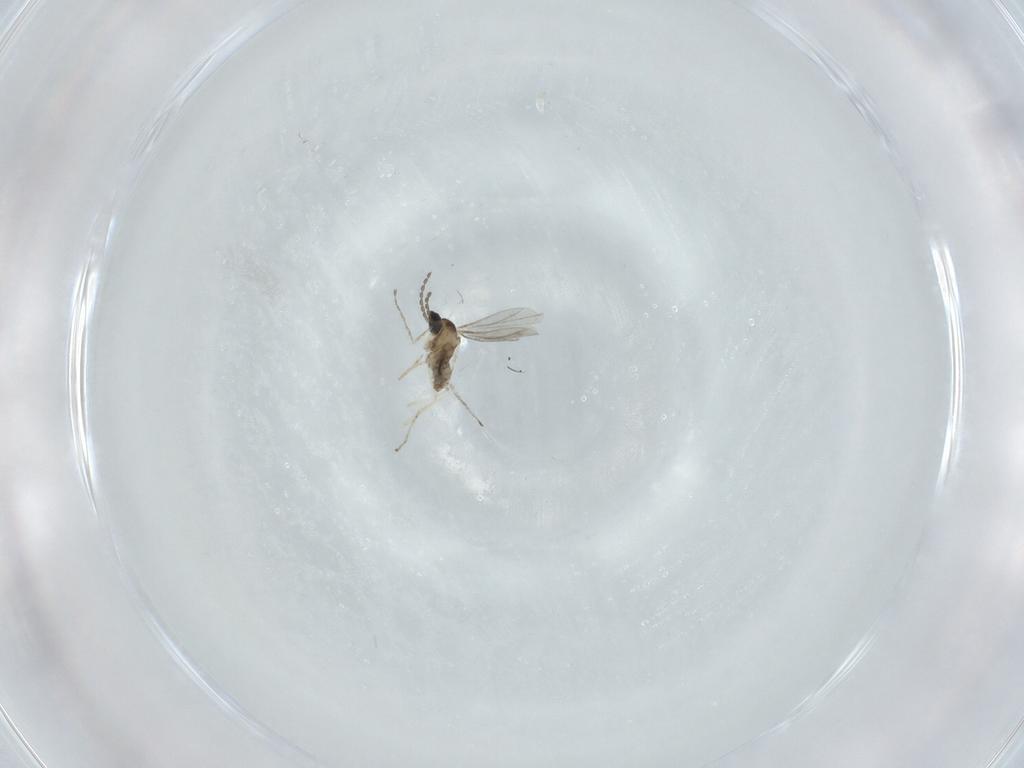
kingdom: Animalia
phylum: Arthropoda
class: Insecta
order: Diptera
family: Cecidomyiidae
